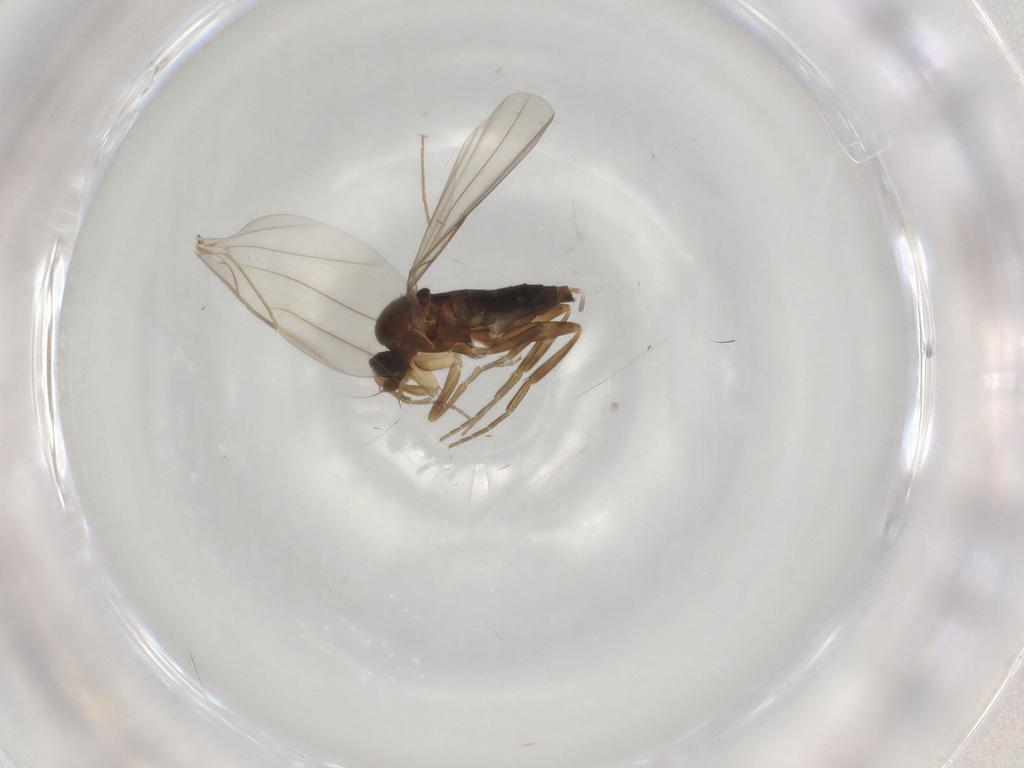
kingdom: Animalia
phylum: Arthropoda
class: Insecta
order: Diptera
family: Chironomidae
